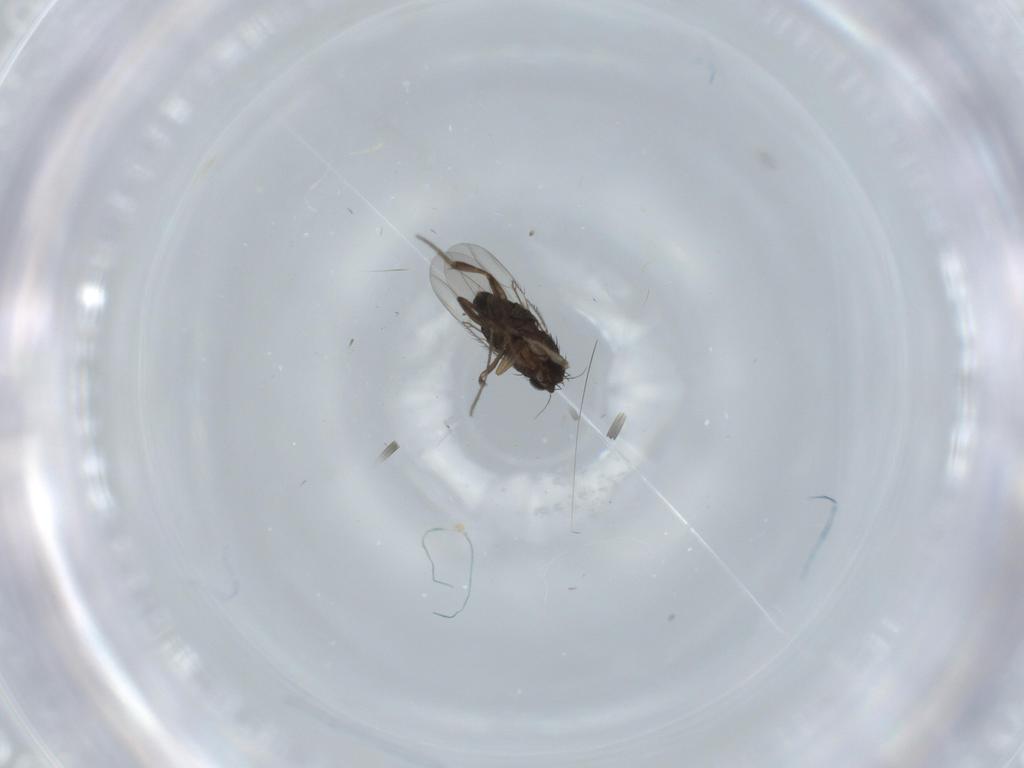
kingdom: Animalia
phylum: Arthropoda
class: Insecta
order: Diptera
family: Phoridae
